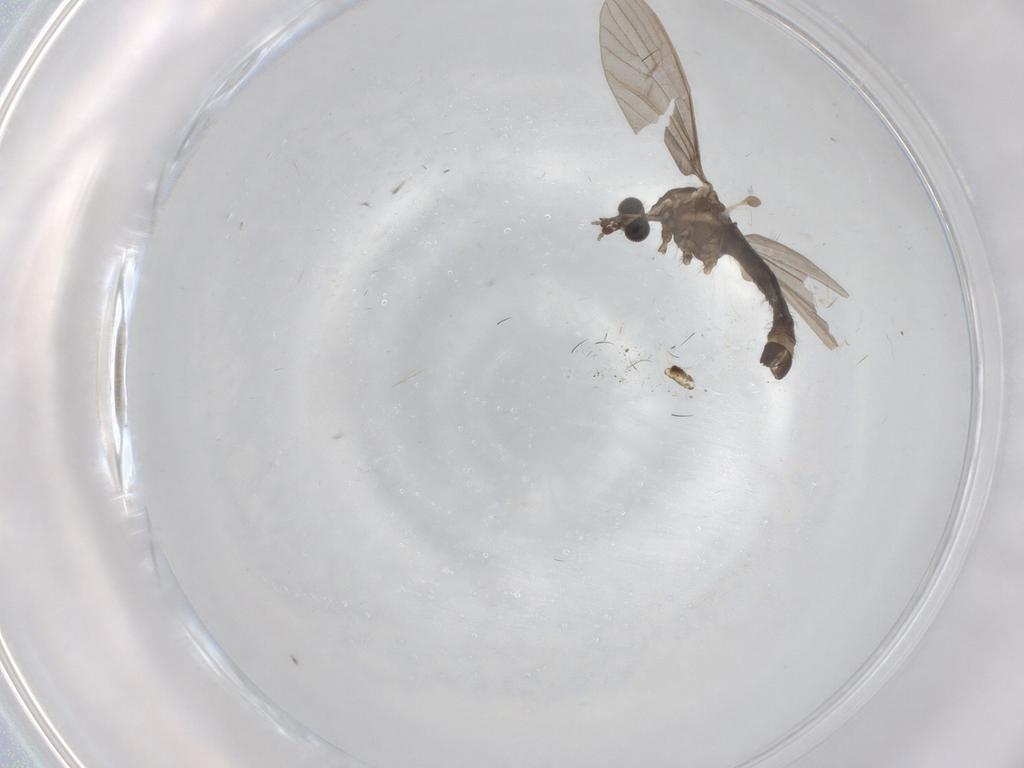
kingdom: Animalia
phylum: Arthropoda
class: Insecta
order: Diptera
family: Limoniidae
